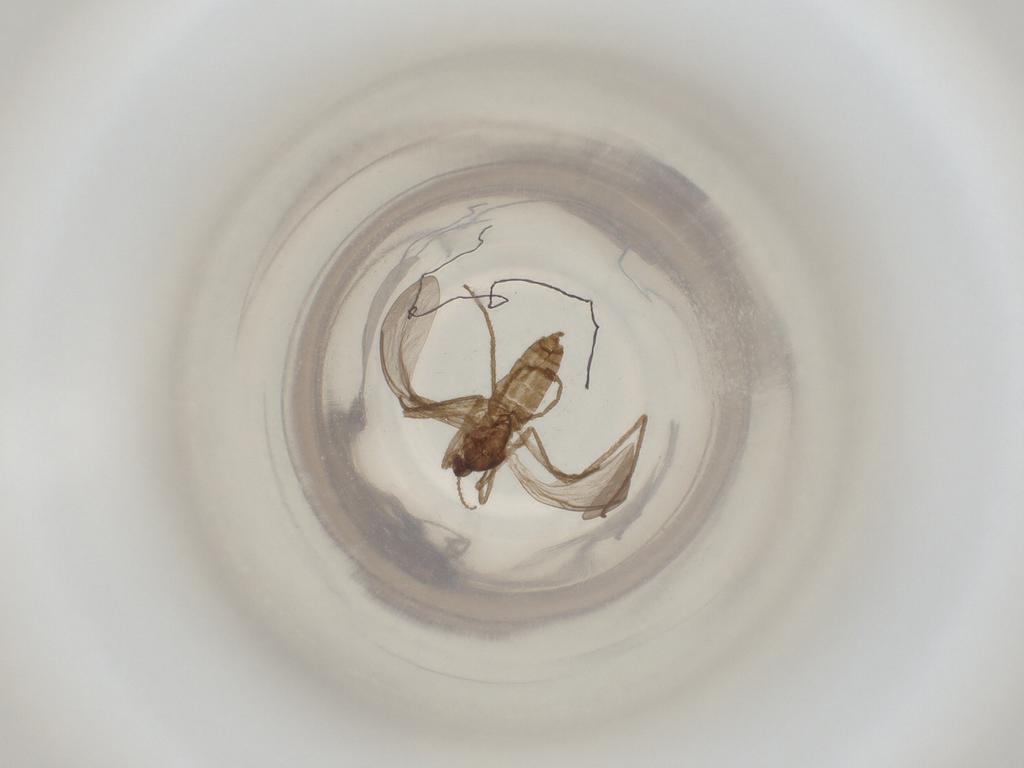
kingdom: Animalia
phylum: Arthropoda
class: Insecta
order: Diptera
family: Cecidomyiidae
